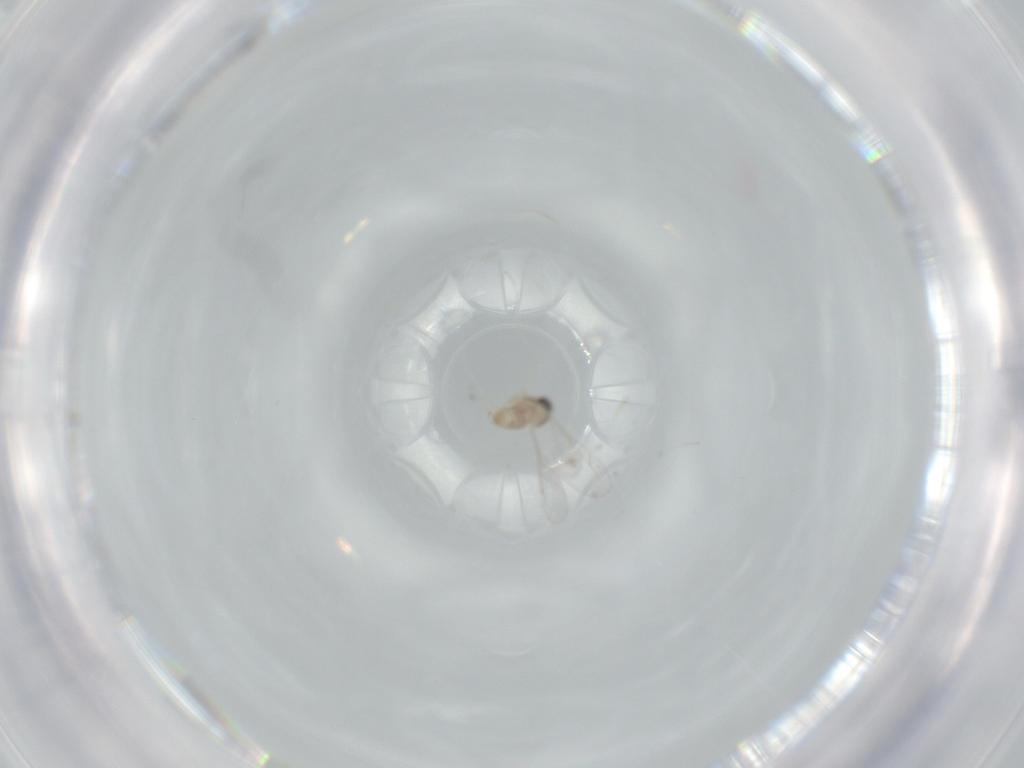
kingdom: Animalia
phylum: Arthropoda
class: Insecta
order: Diptera
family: Cecidomyiidae
